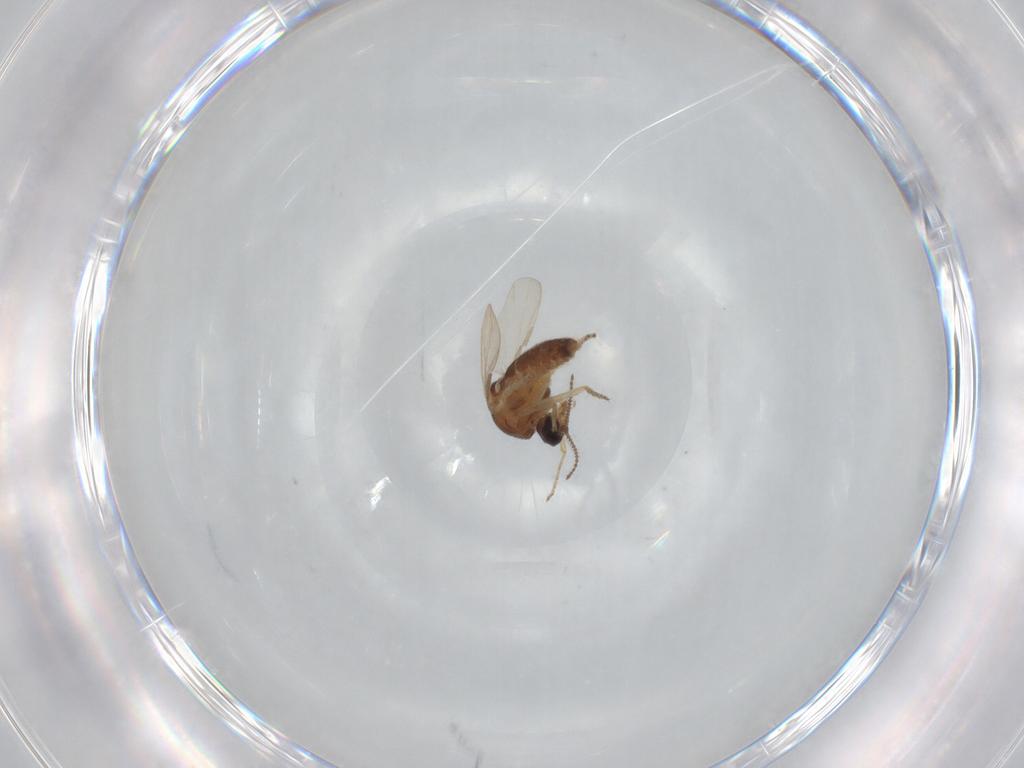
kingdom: Animalia
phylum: Arthropoda
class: Insecta
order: Diptera
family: Ceratopogonidae
